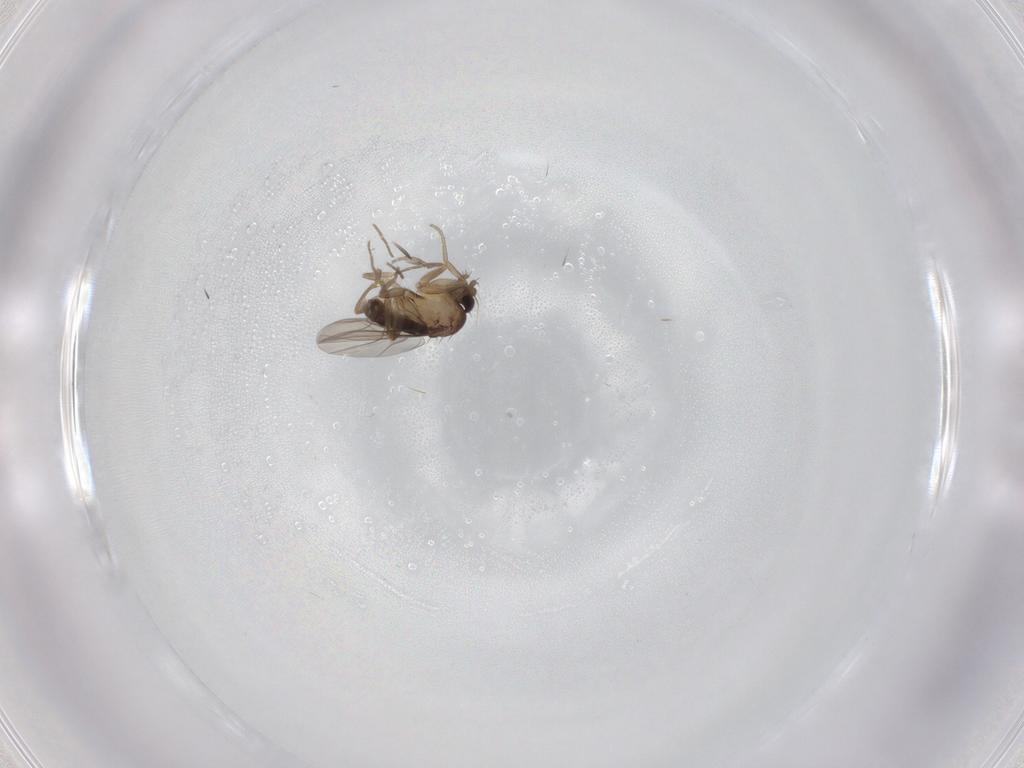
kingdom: Animalia
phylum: Arthropoda
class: Insecta
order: Diptera
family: Phoridae
